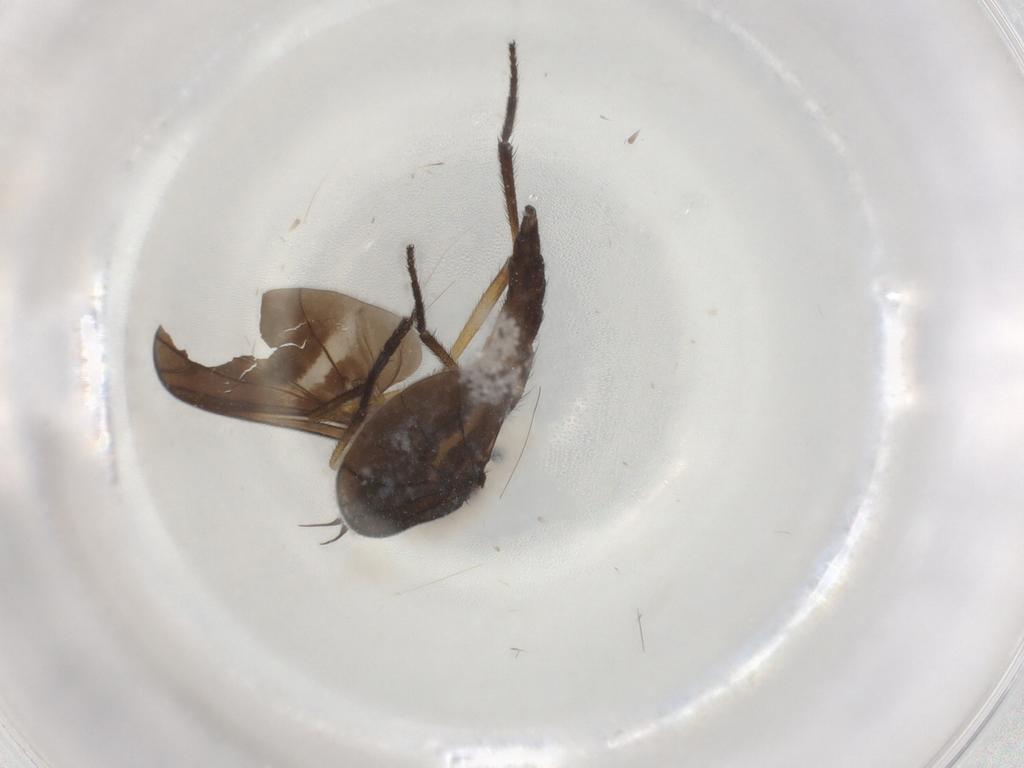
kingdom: Animalia
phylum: Arthropoda
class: Insecta
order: Diptera
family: Empididae
